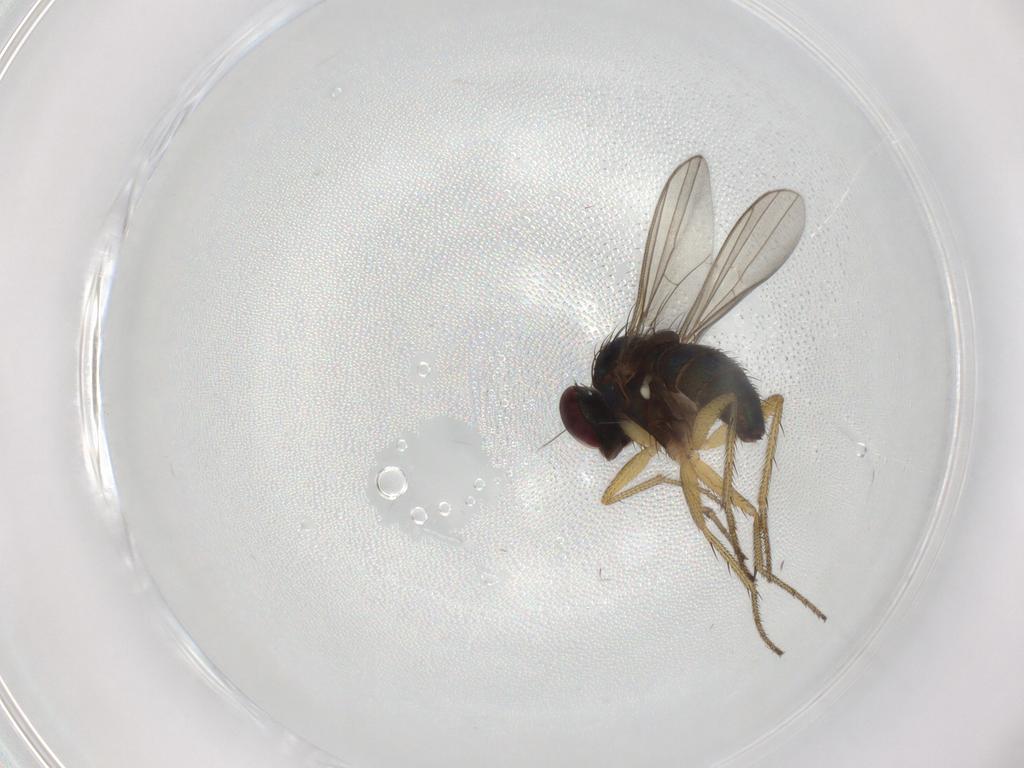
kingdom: Animalia
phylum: Arthropoda
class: Insecta
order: Diptera
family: Dolichopodidae
